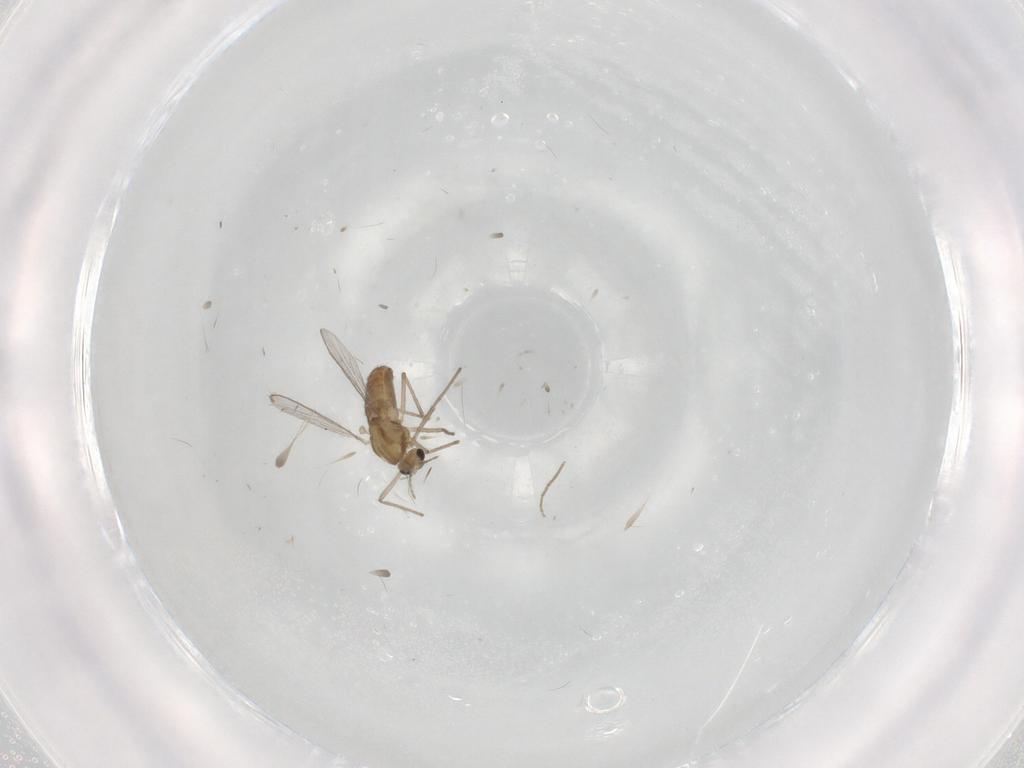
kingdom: Animalia
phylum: Arthropoda
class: Insecta
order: Diptera
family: Chironomidae
